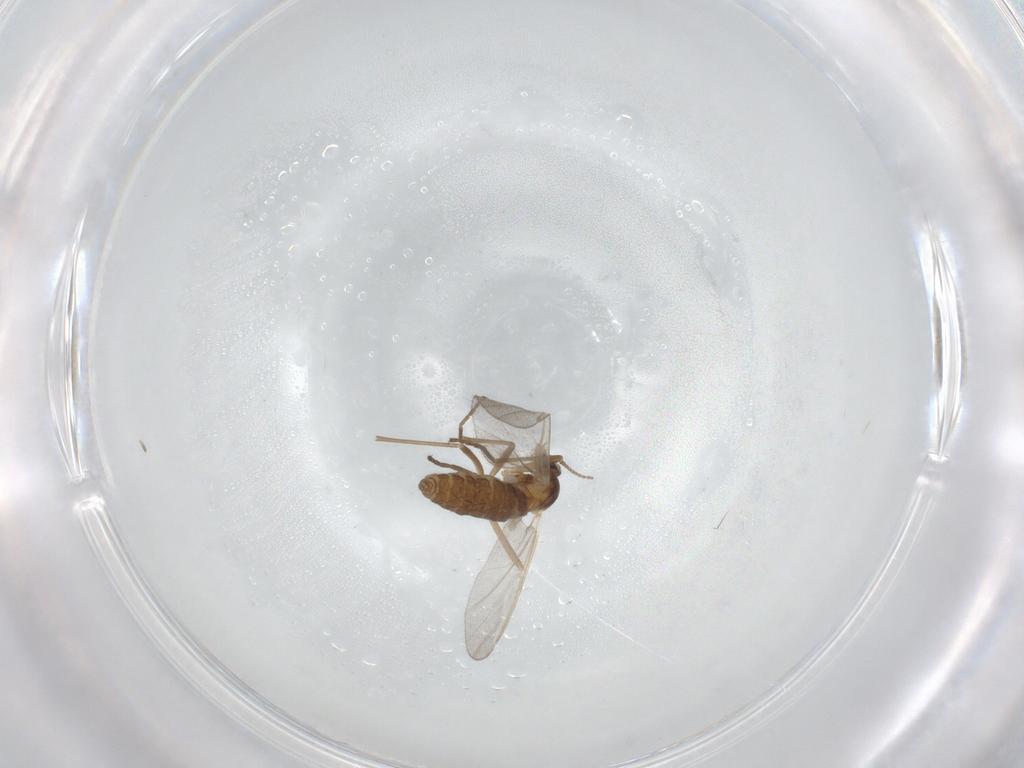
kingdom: Animalia
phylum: Arthropoda
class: Insecta
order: Diptera
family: Cecidomyiidae
